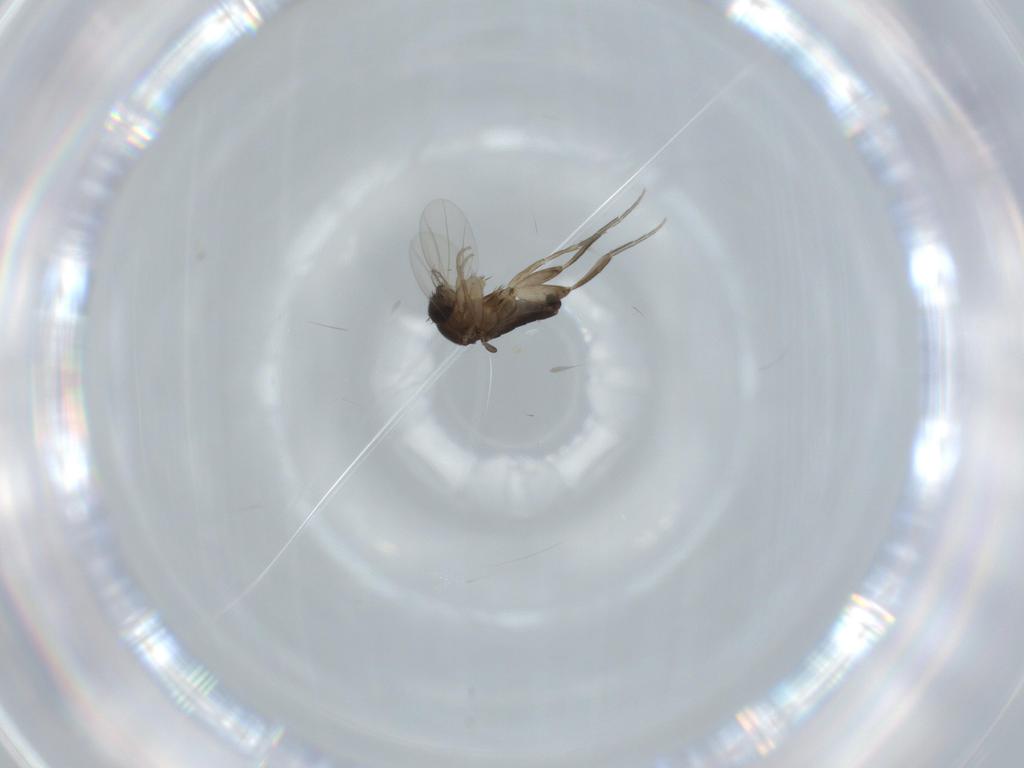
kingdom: Animalia
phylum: Arthropoda
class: Insecta
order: Diptera
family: Phoridae
